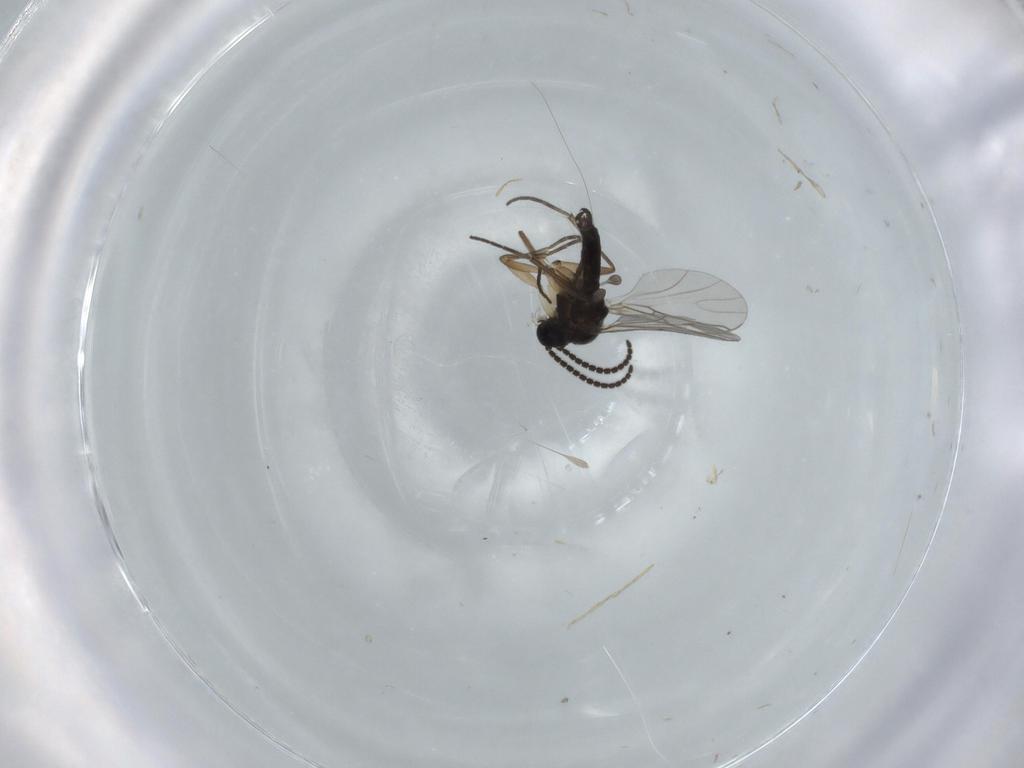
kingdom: Animalia
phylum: Arthropoda
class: Insecta
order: Diptera
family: Sciaridae
